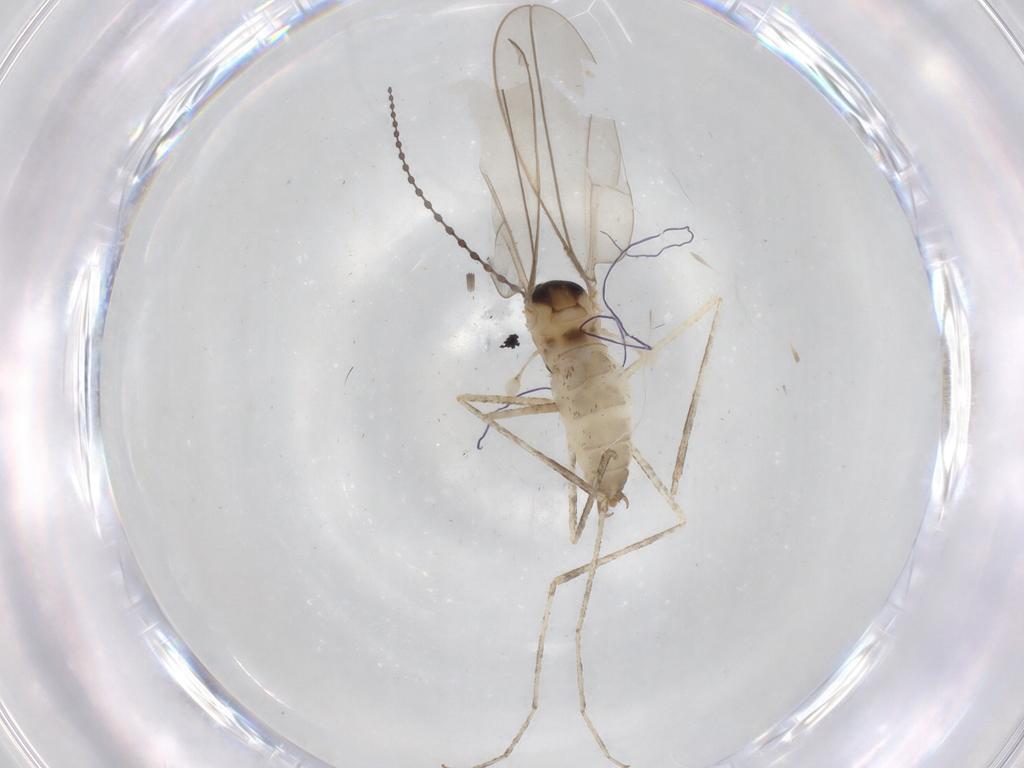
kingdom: Animalia
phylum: Arthropoda
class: Insecta
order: Diptera
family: Cecidomyiidae
